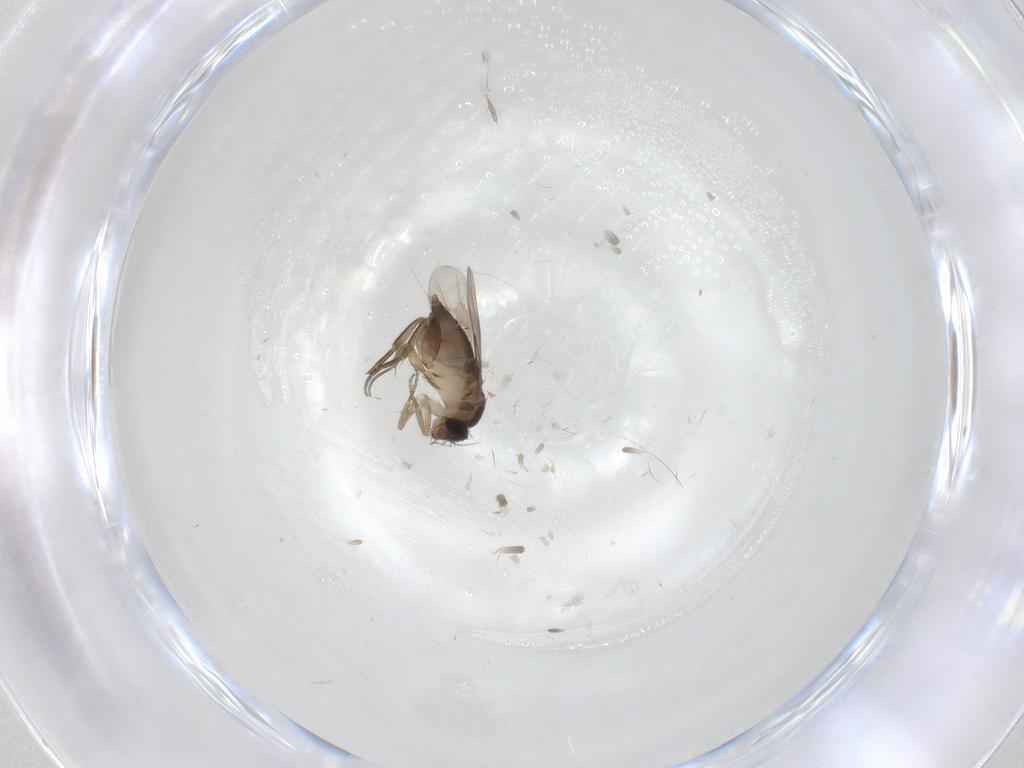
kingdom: Animalia
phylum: Arthropoda
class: Insecta
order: Diptera
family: Phoridae
